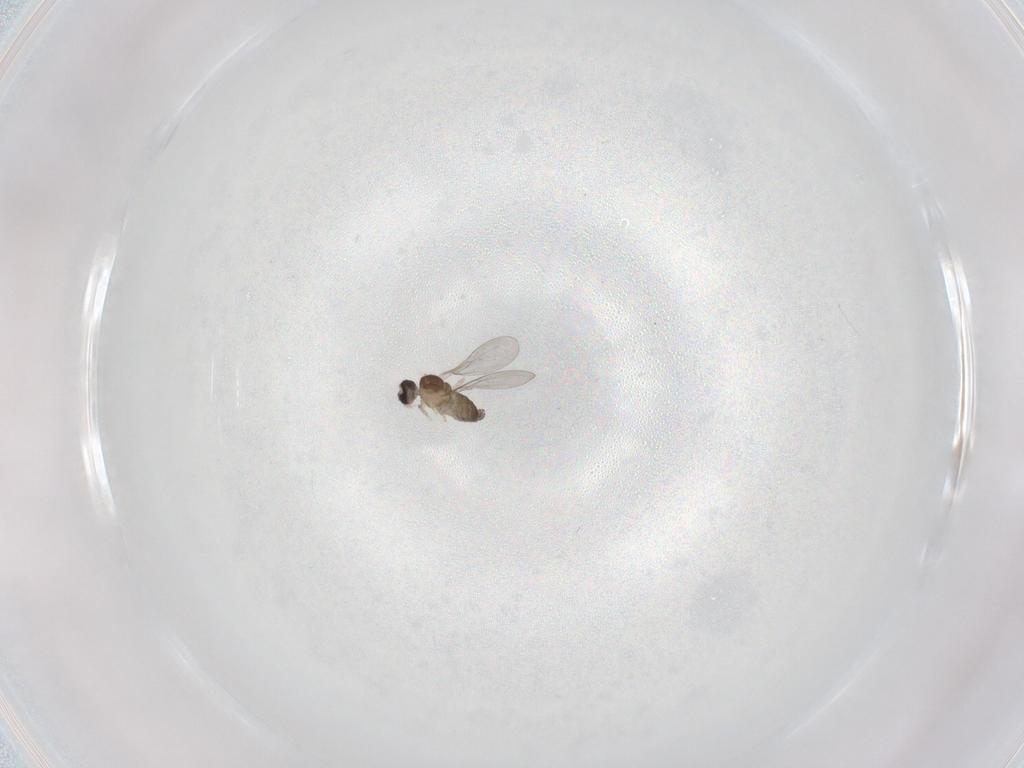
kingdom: Animalia
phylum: Arthropoda
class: Insecta
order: Diptera
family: Cecidomyiidae
